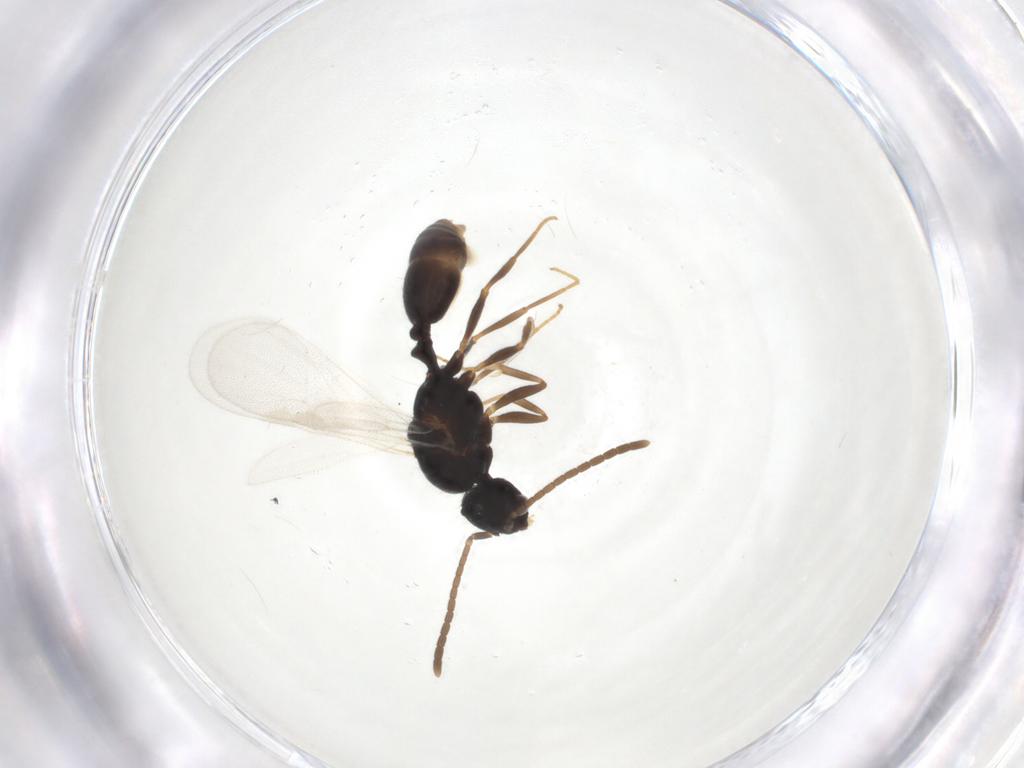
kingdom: Animalia
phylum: Arthropoda
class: Insecta
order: Hymenoptera
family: Formicidae
